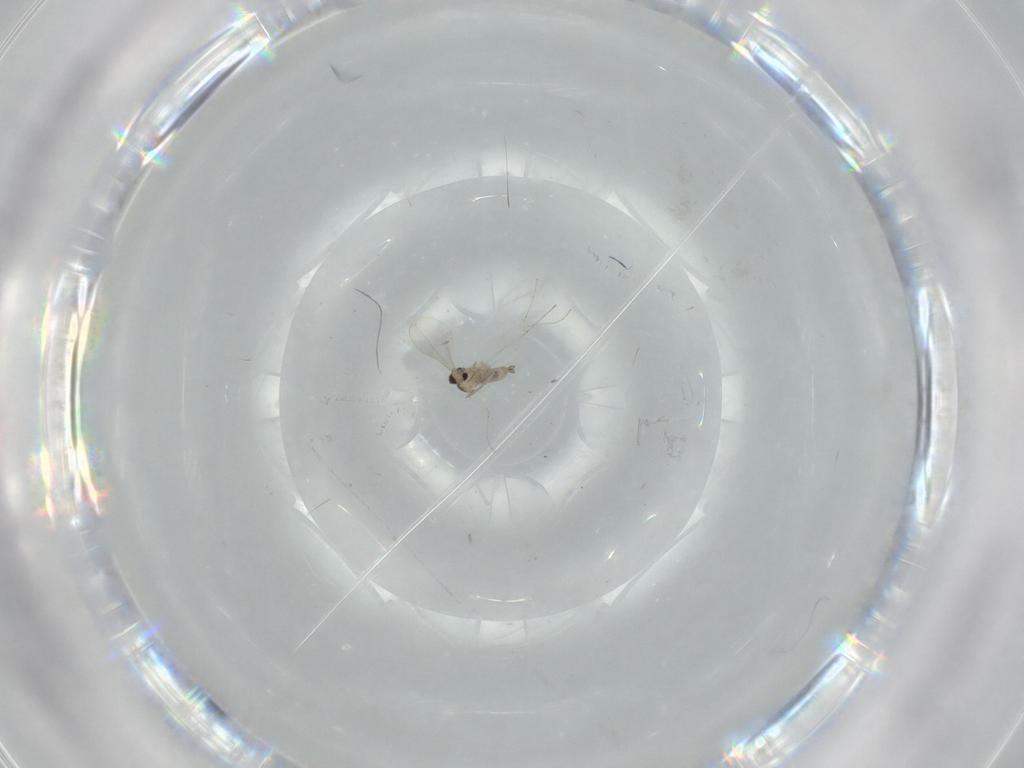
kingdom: Animalia
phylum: Arthropoda
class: Insecta
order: Diptera
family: Cecidomyiidae
